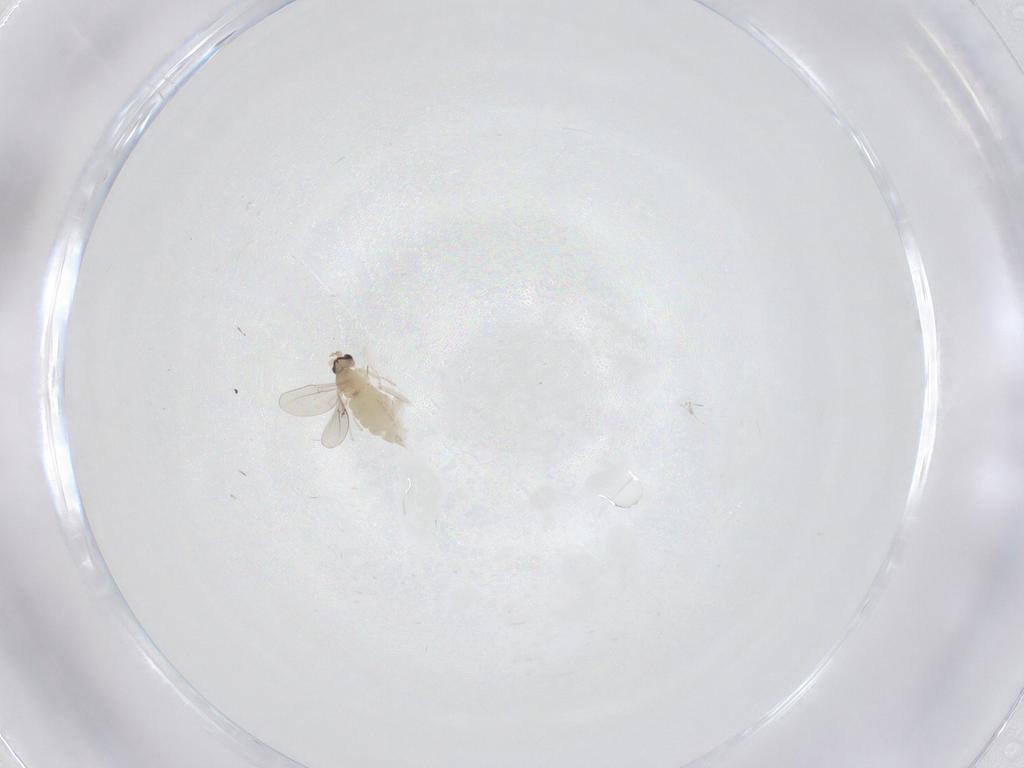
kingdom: Animalia
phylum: Arthropoda
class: Insecta
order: Diptera
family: Cecidomyiidae
